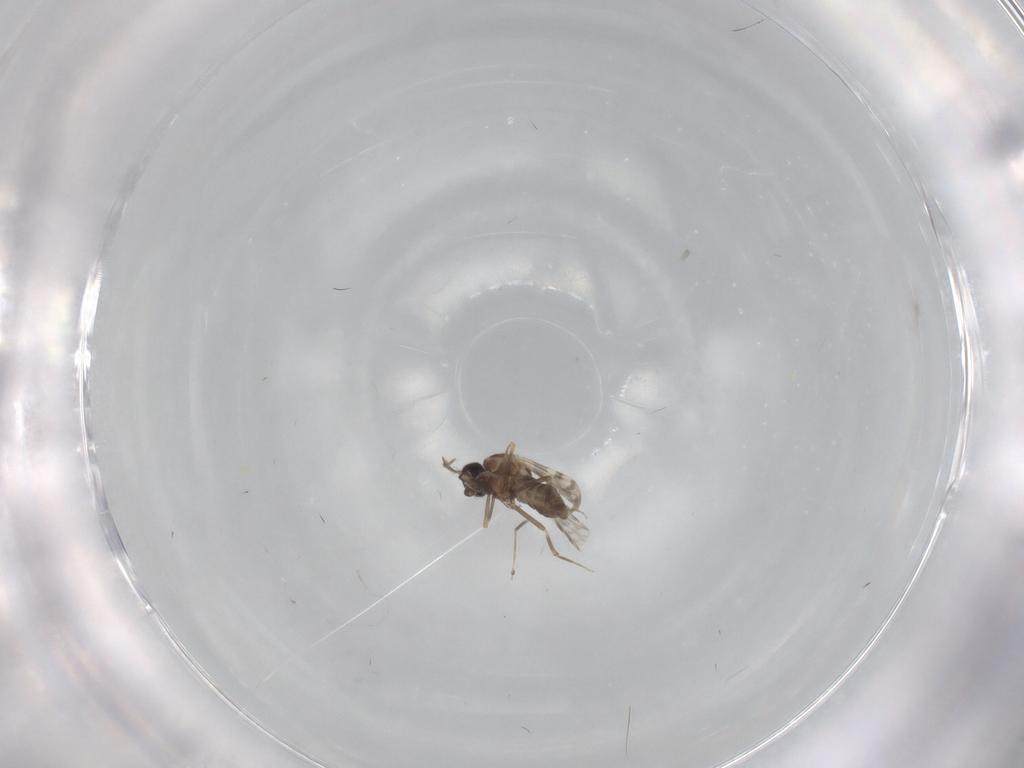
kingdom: Animalia
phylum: Arthropoda
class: Insecta
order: Diptera
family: Ceratopogonidae
